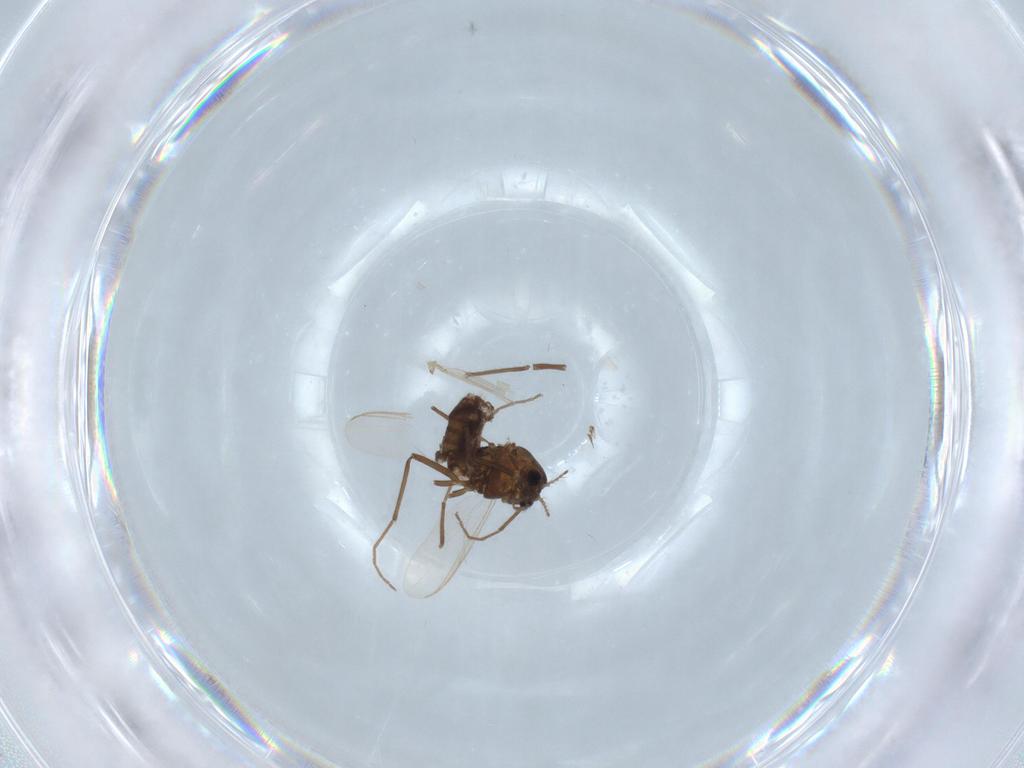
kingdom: Animalia
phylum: Arthropoda
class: Insecta
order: Diptera
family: Chironomidae
